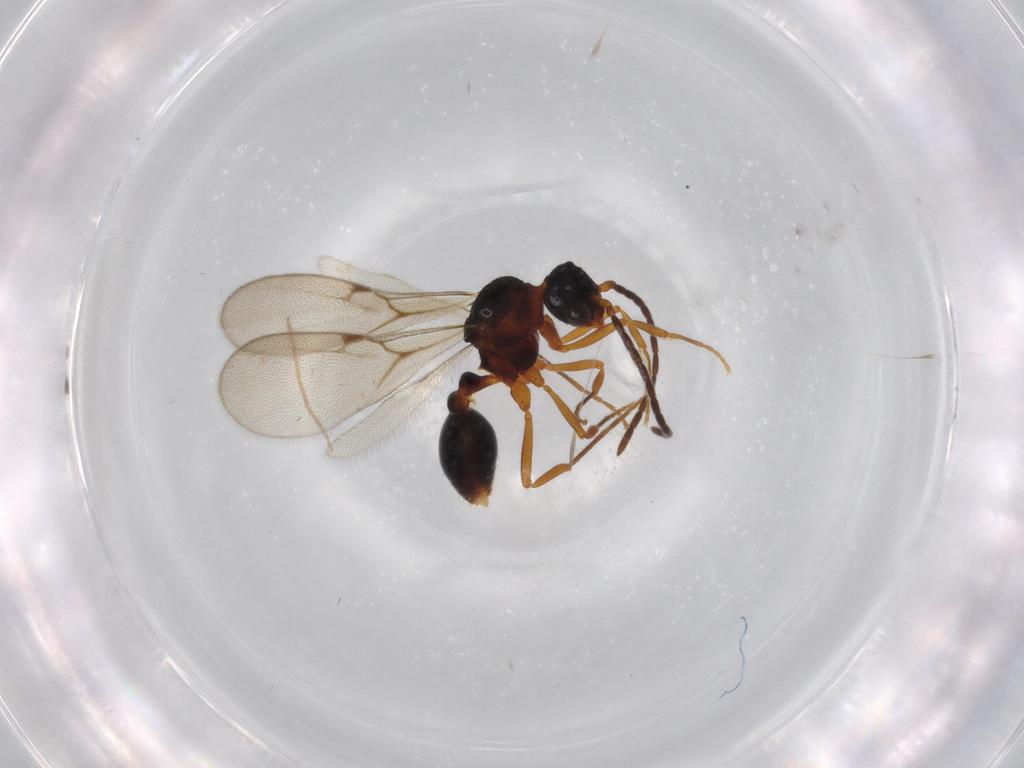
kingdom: Animalia
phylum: Arthropoda
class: Insecta
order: Hymenoptera
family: Formicidae
